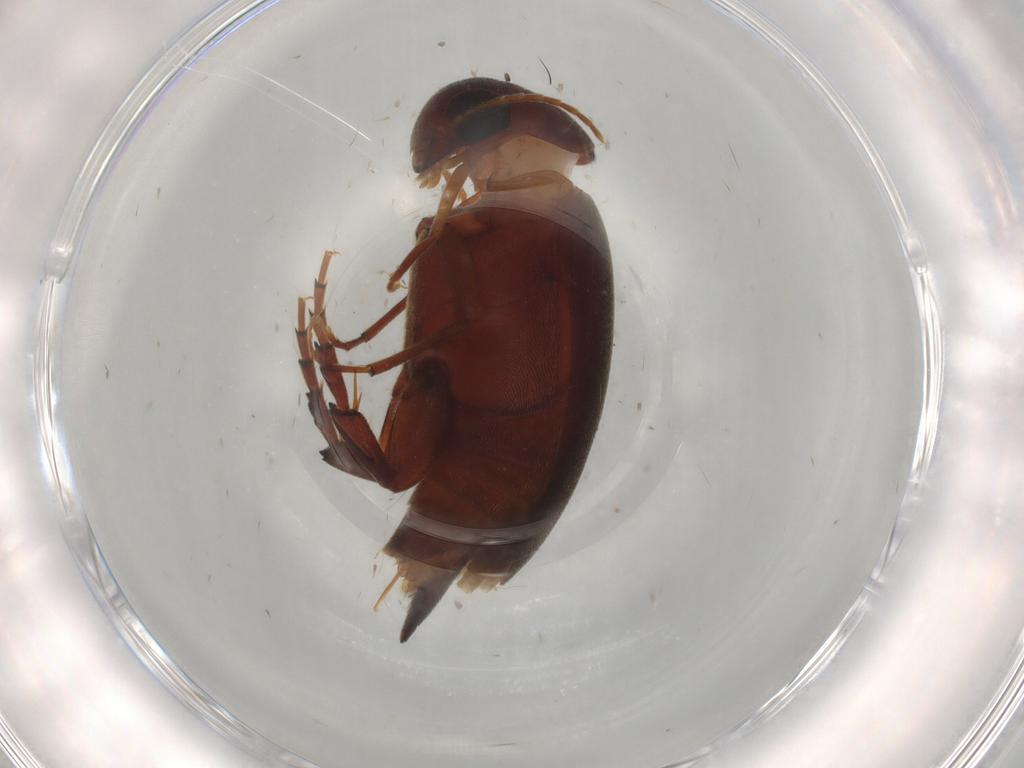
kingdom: Animalia
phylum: Arthropoda
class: Insecta
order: Coleoptera
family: Mordellidae
